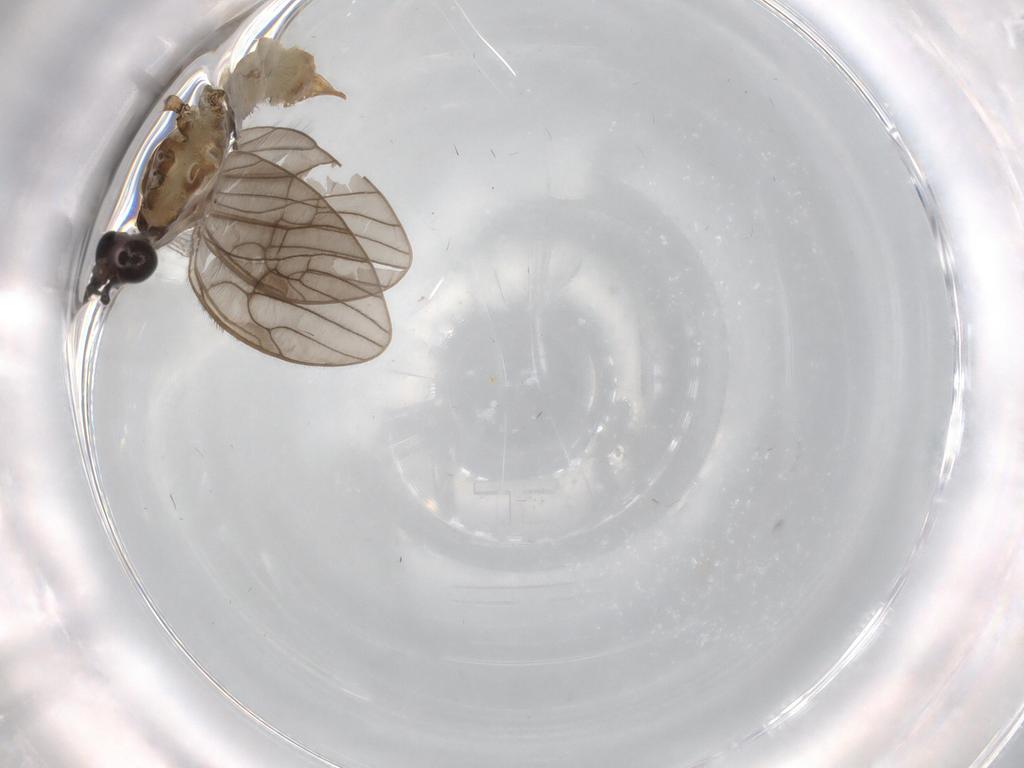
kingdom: Animalia
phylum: Arthropoda
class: Insecta
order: Diptera
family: Limoniidae
